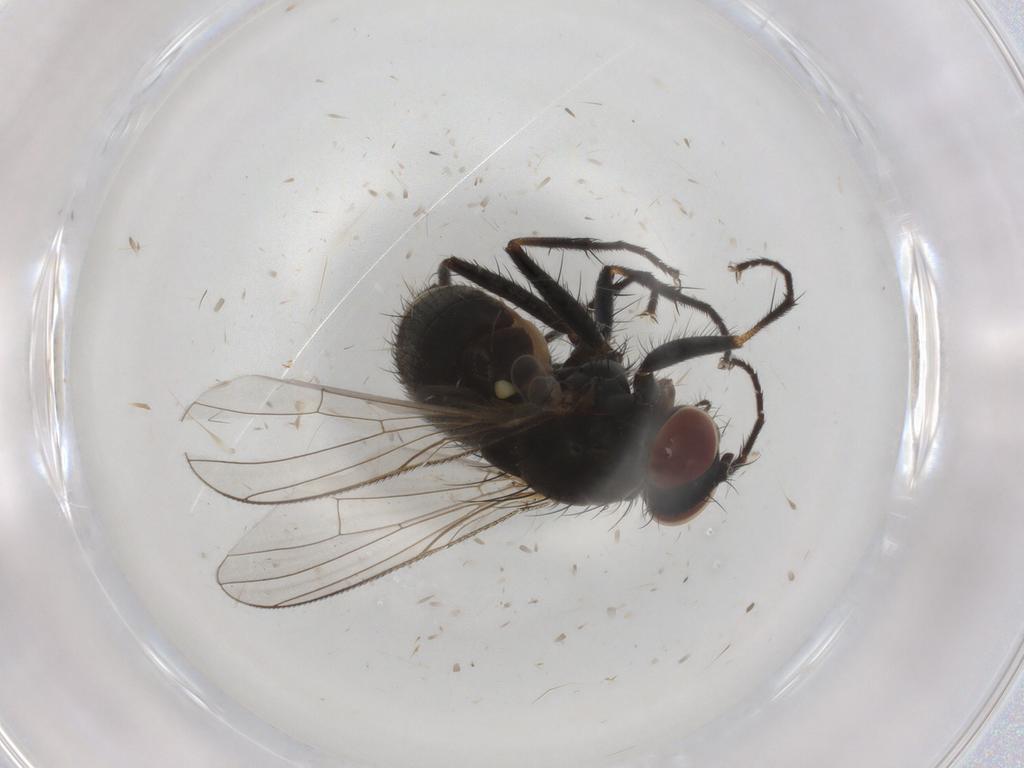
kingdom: Animalia
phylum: Arthropoda
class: Insecta
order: Diptera
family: Muscidae
